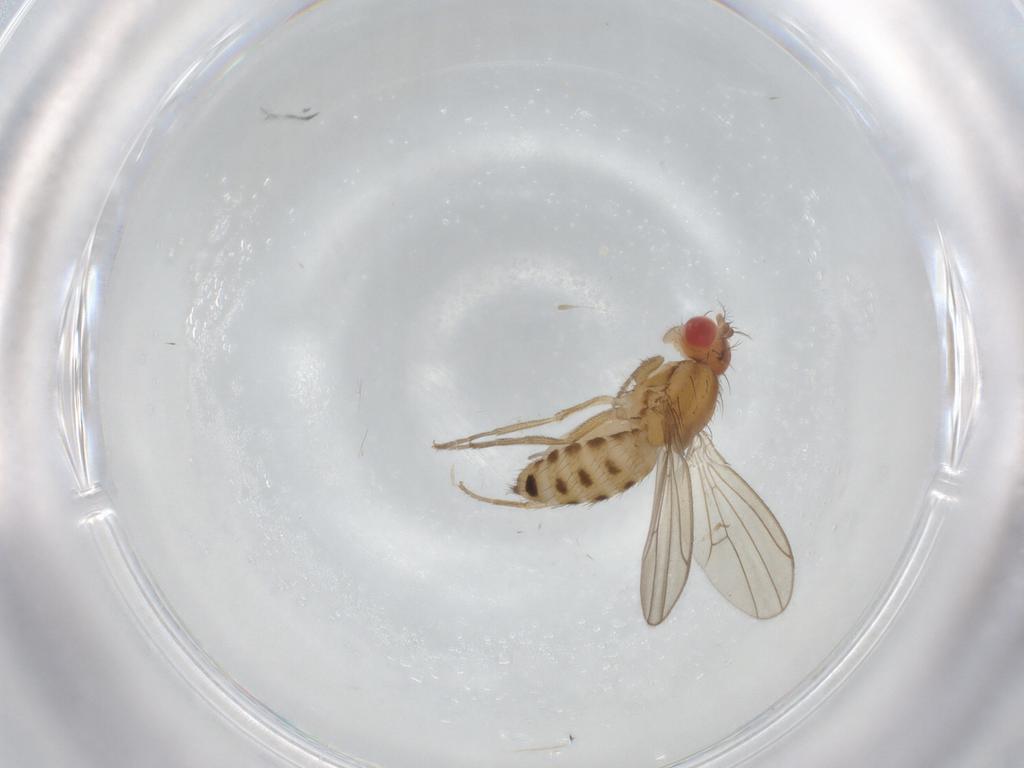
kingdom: Animalia
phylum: Arthropoda
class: Insecta
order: Diptera
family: Drosophilidae
